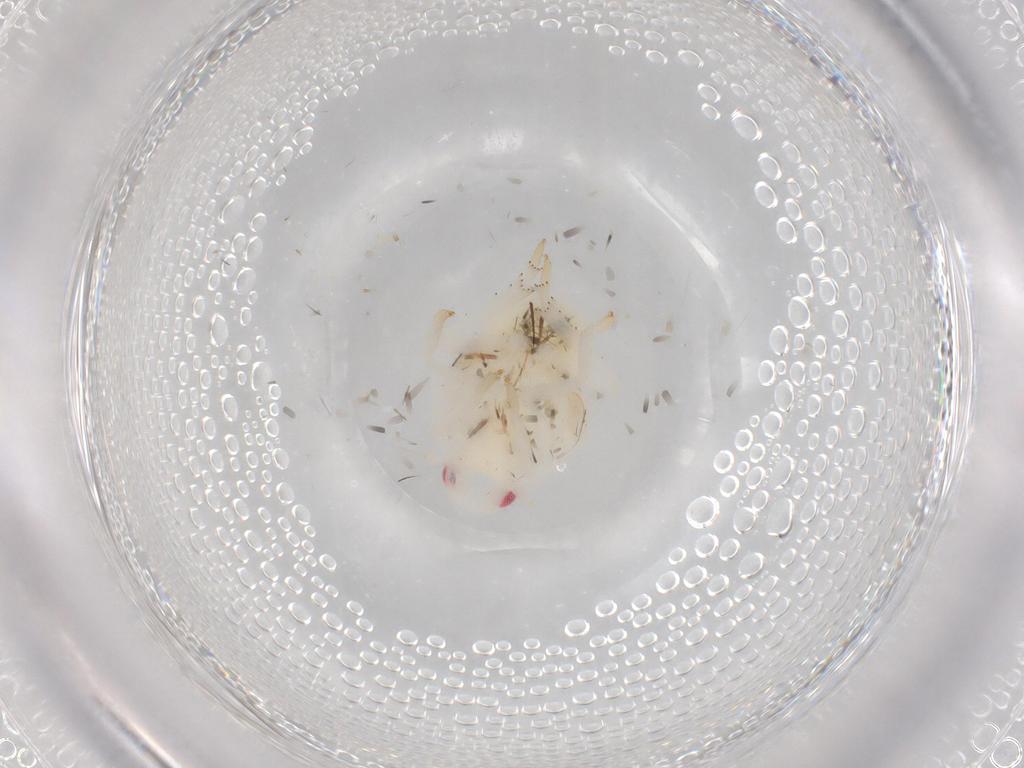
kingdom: Animalia
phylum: Arthropoda
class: Insecta
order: Hemiptera
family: Flatidae
